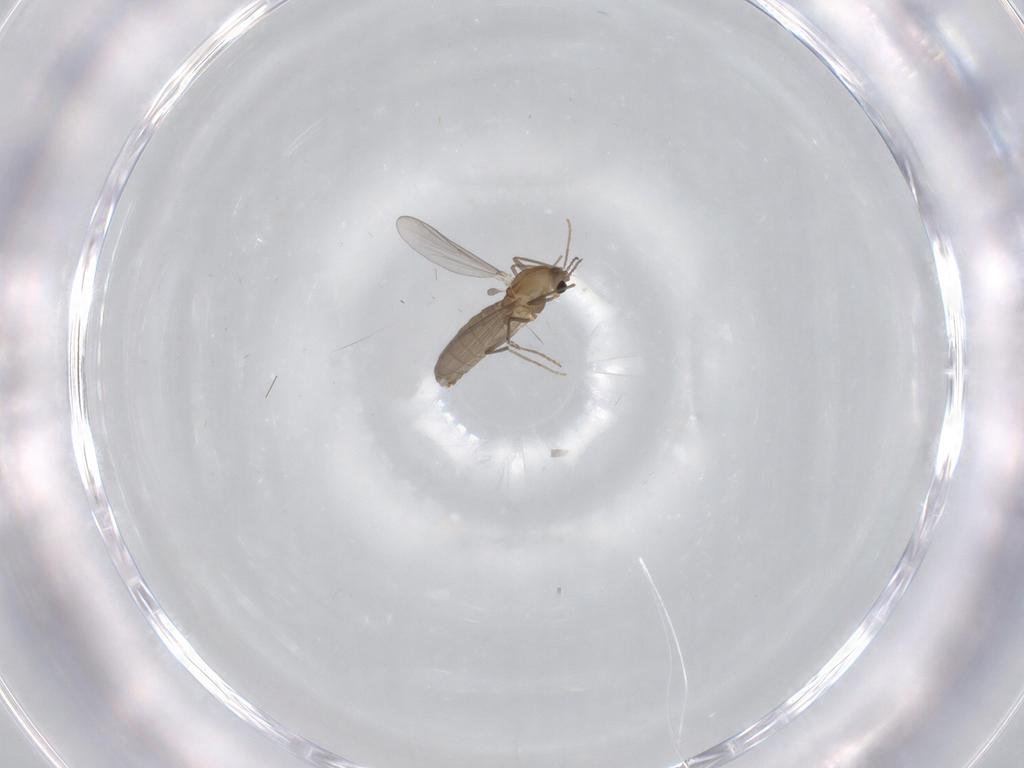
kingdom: Animalia
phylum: Arthropoda
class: Insecta
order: Diptera
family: Chironomidae
